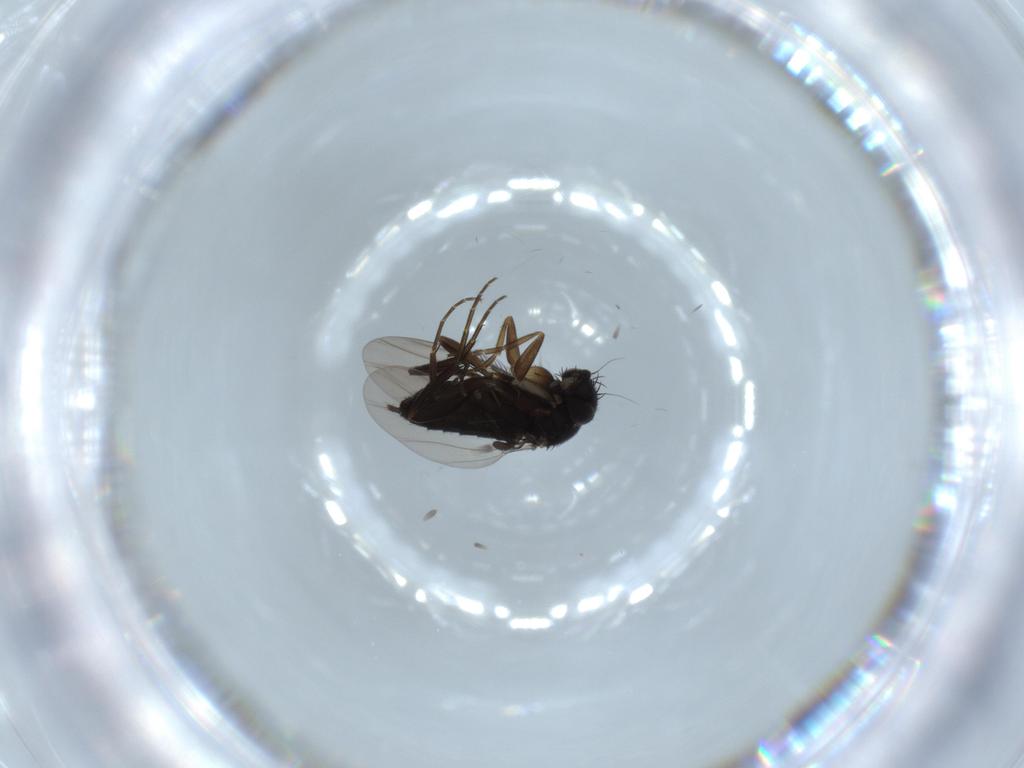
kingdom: Animalia
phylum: Arthropoda
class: Insecta
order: Diptera
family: Phoridae
